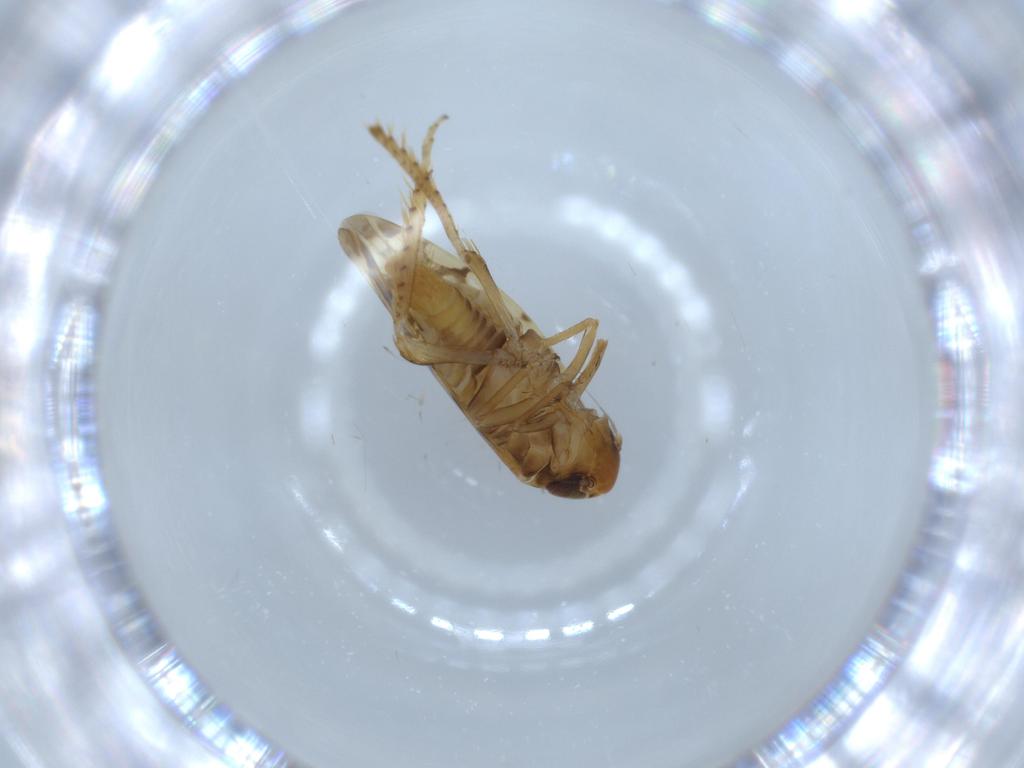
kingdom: Animalia
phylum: Arthropoda
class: Insecta
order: Hemiptera
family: Cicadellidae
